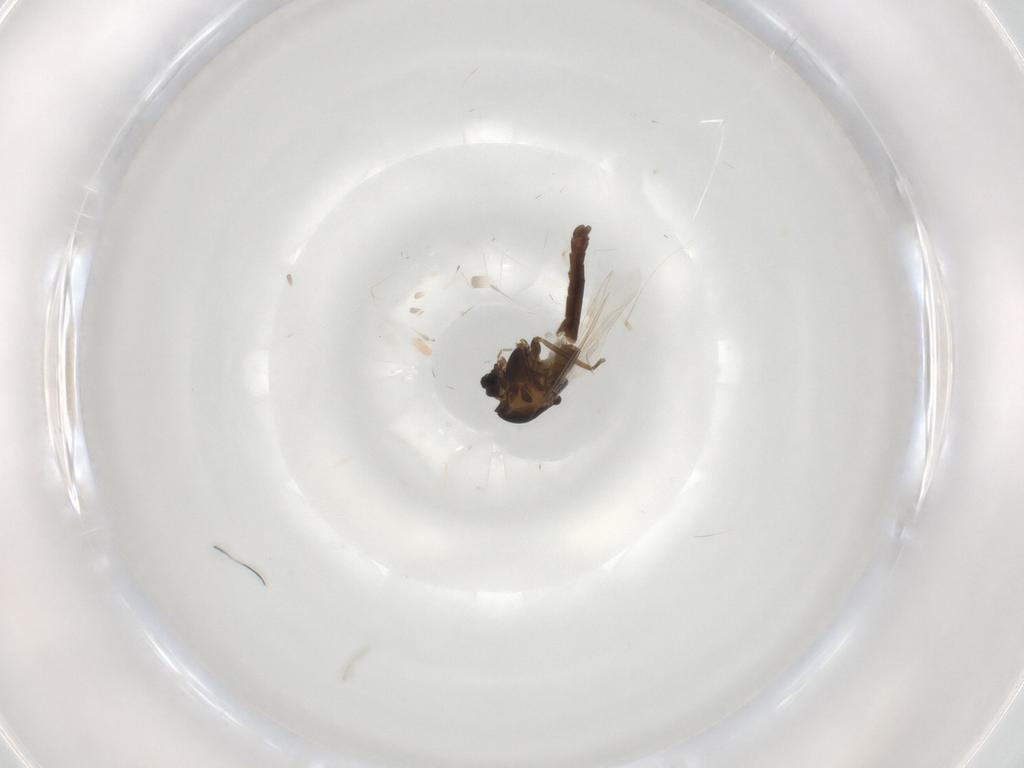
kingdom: Animalia
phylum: Arthropoda
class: Insecta
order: Diptera
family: Chironomidae
